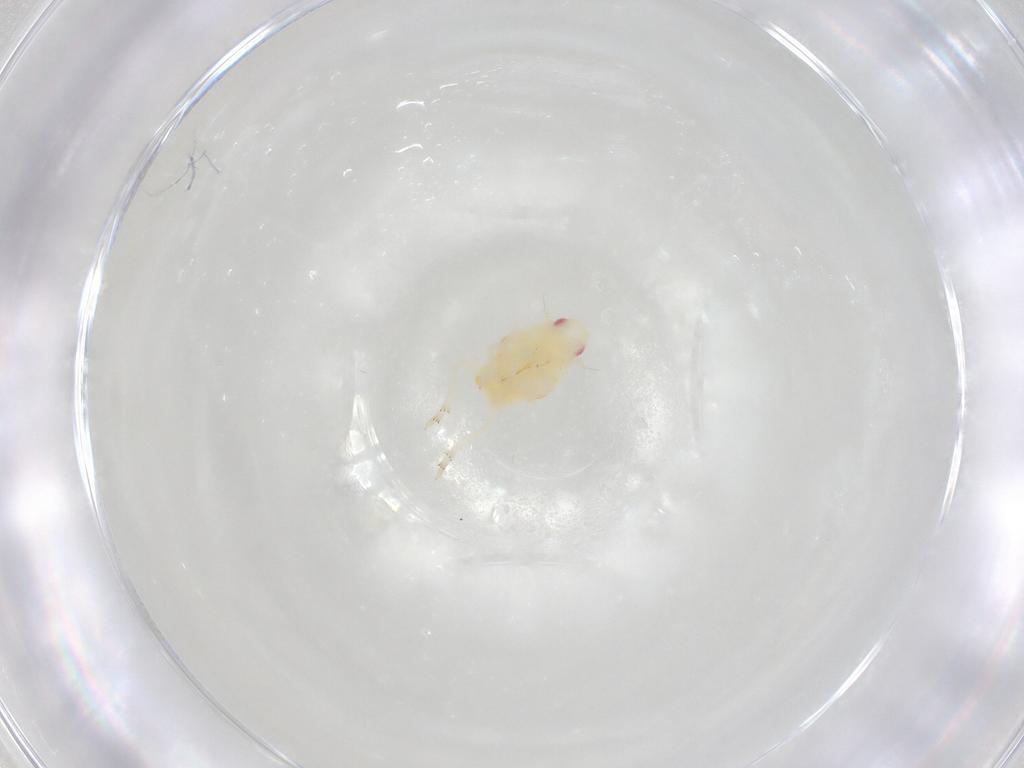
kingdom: Animalia
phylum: Arthropoda
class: Insecta
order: Hemiptera
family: Flatidae
